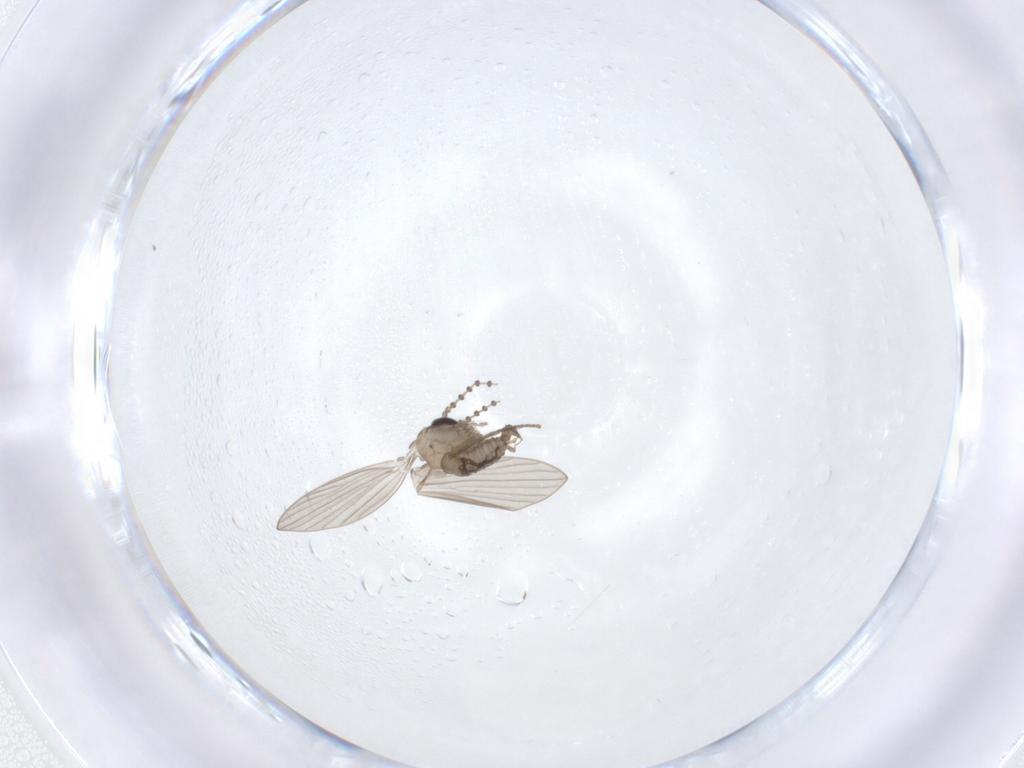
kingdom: Animalia
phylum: Arthropoda
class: Insecta
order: Diptera
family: Psychodidae
